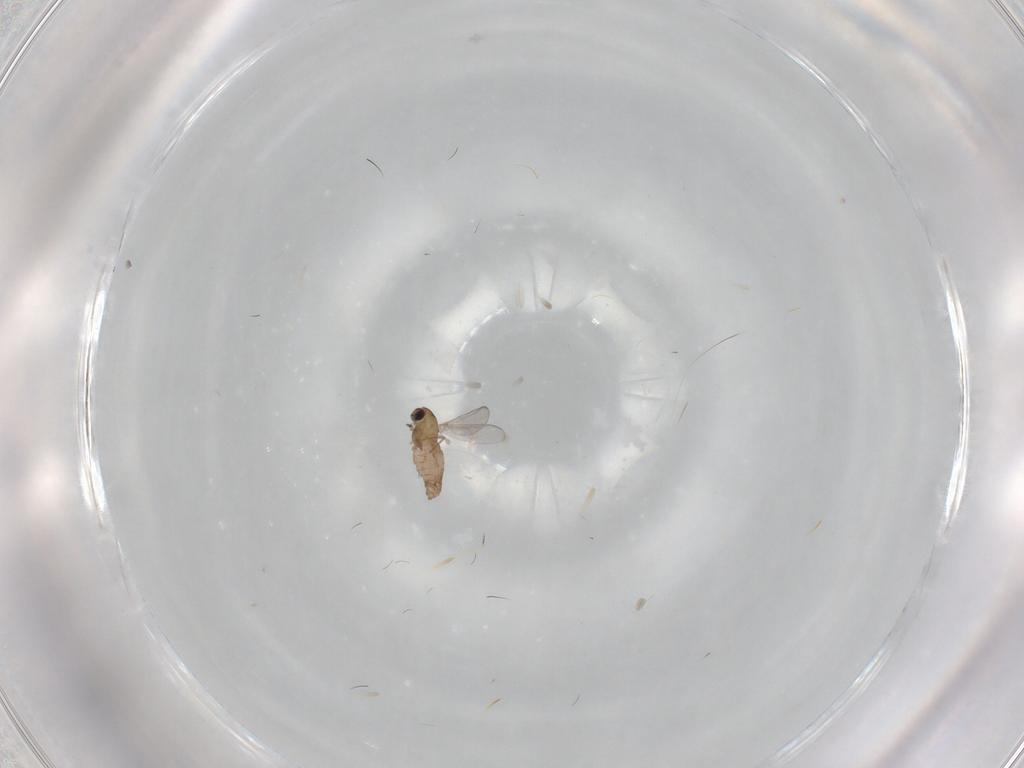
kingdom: Animalia
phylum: Arthropoda
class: Insecta
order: Diptera
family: Chironomidae
